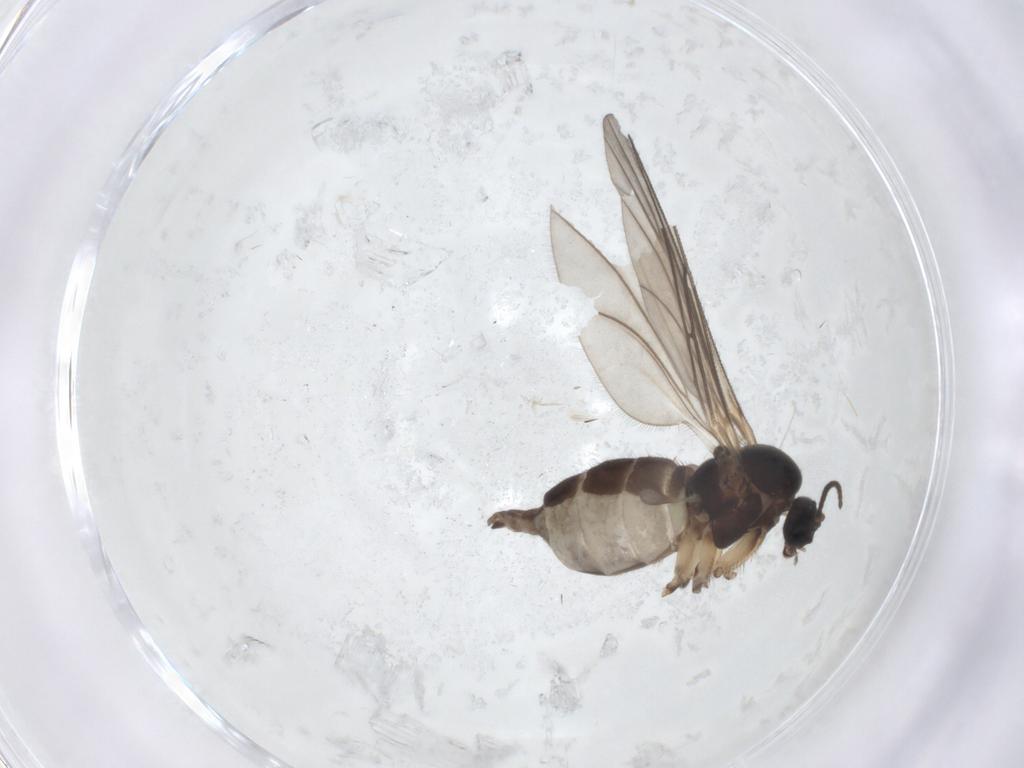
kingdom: Animalia
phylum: Arthropoda
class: Insecta
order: Diptera
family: Sciaridae
